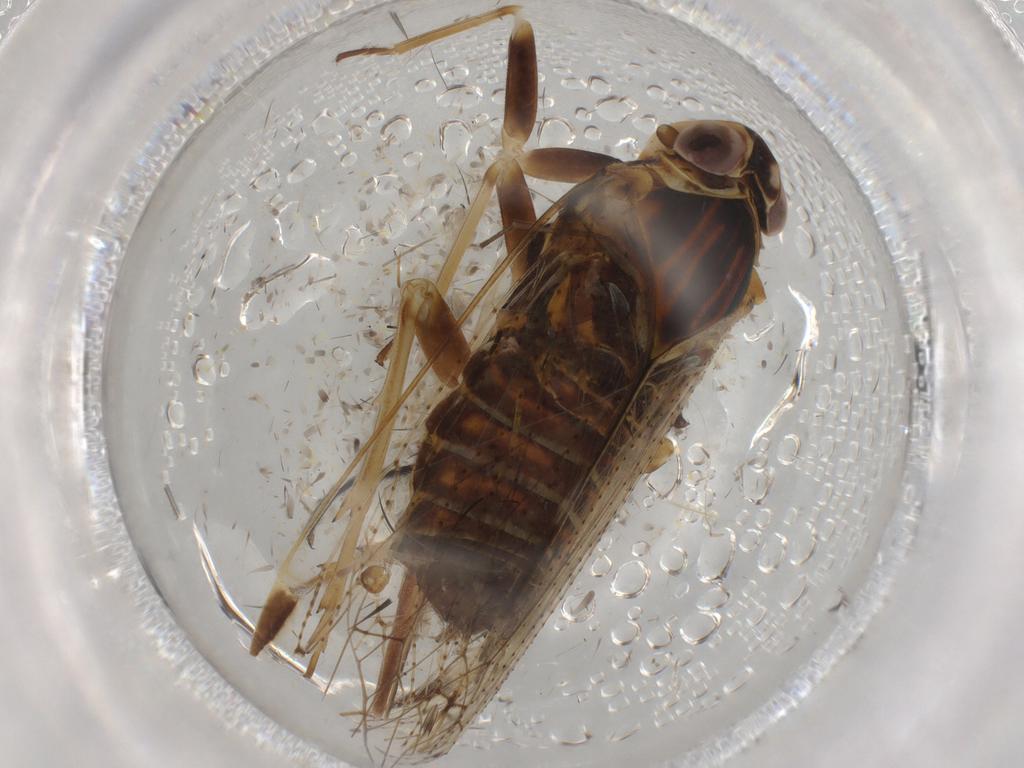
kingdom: Animalia
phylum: Arthropoda
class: Insecta
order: Hemiptera
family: Cixiidae
